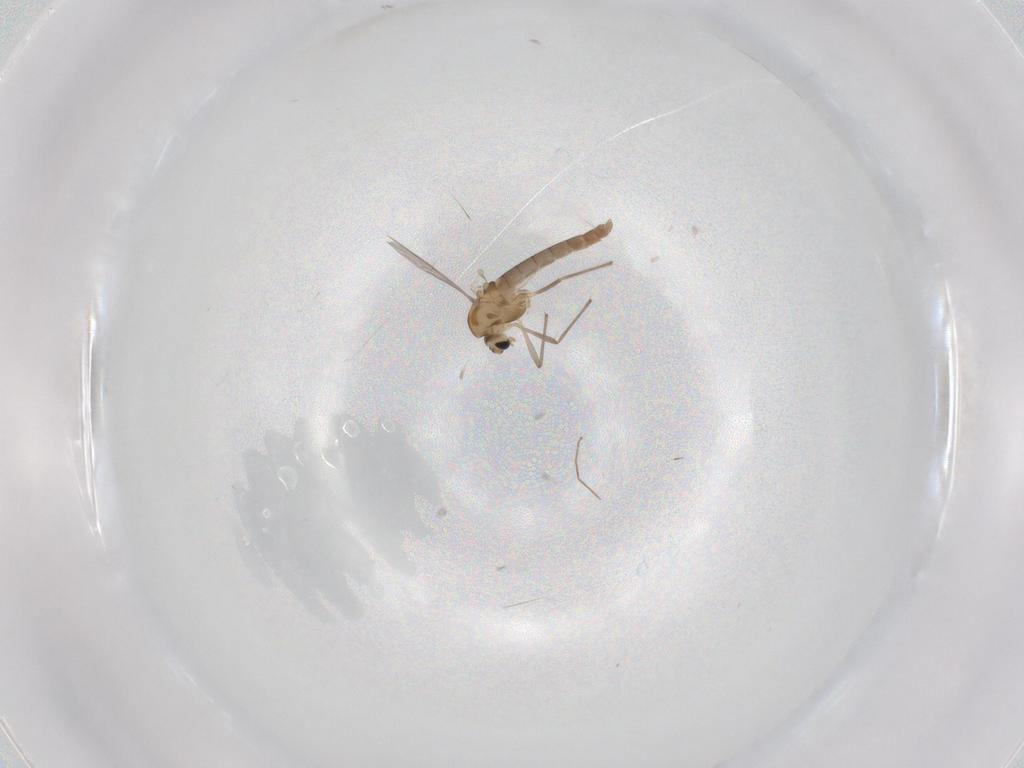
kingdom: Animalia
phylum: Arthropoda
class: Insecta
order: Diptera
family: Chironomidae
